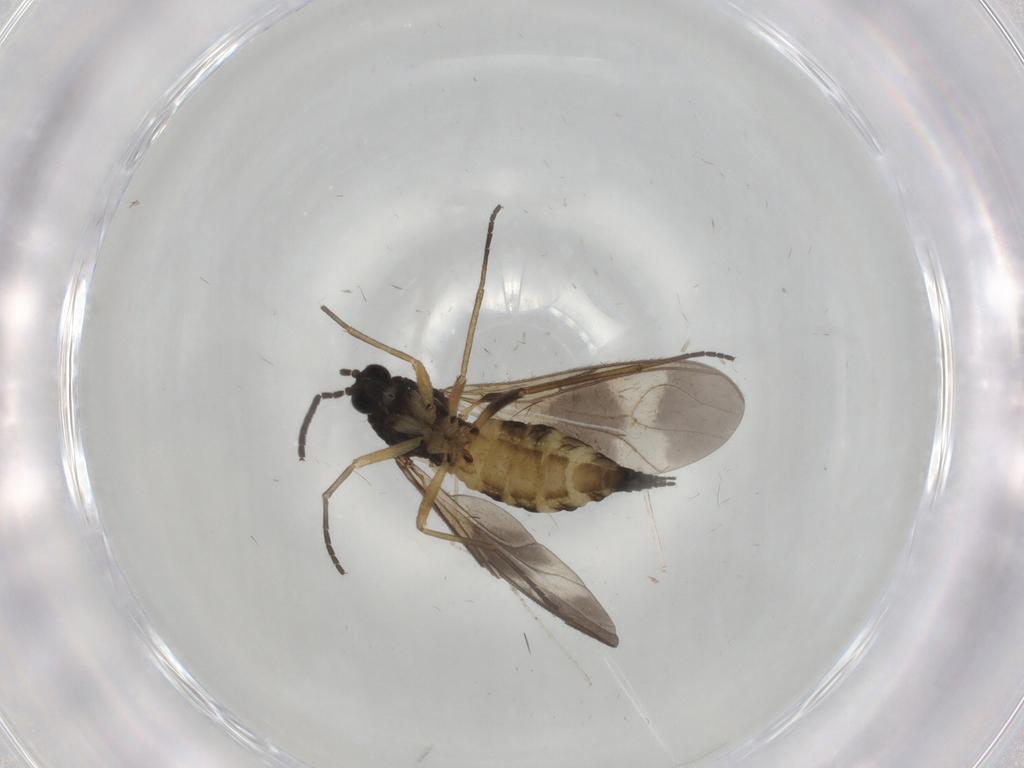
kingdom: Animalia
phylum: Arthropoda
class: Insecta
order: Diptera
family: Sciaridae
